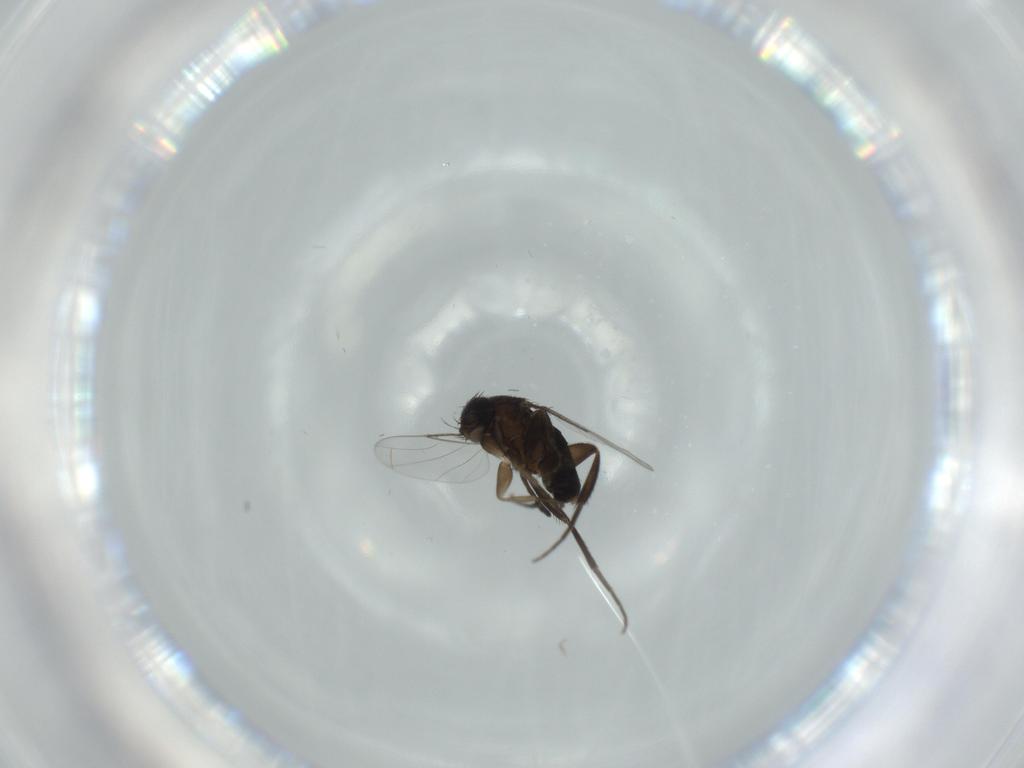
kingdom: Animalia
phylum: Arthropoda
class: Insecta
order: Diptera
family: Phoridae
